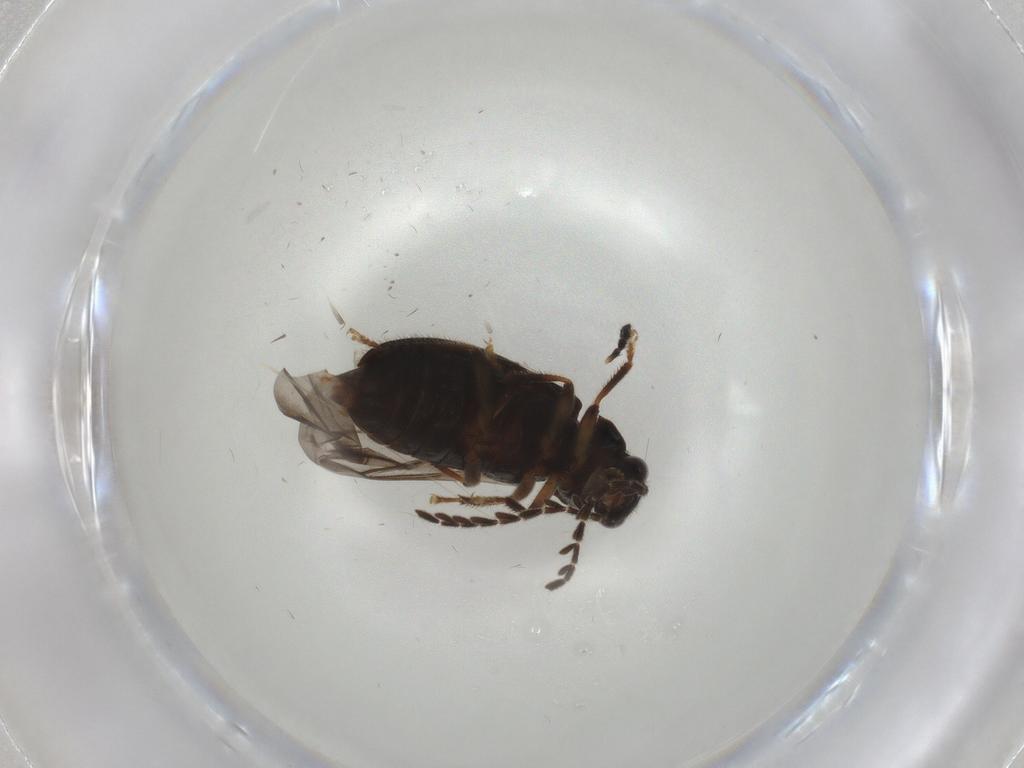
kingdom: Animalia
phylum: Arthropoda
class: Insecta
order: Coleoptera
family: Ptilodactylidae
